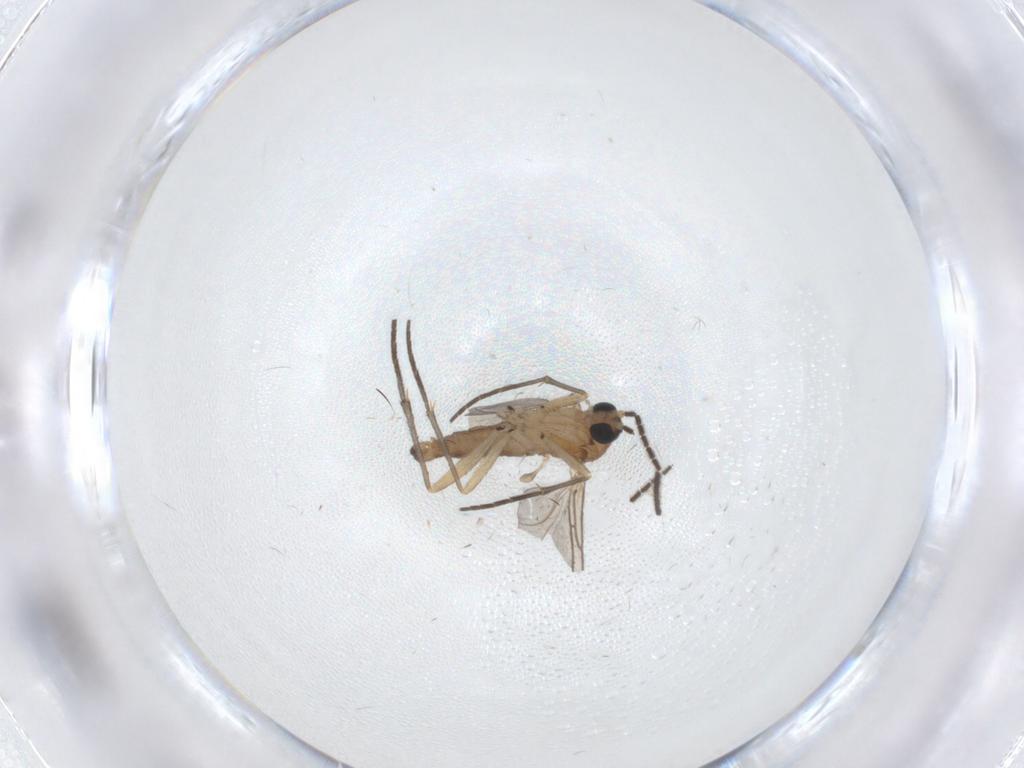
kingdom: Animalia
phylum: Arthropoda
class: Insecta
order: Diptera
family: Sciaridae
